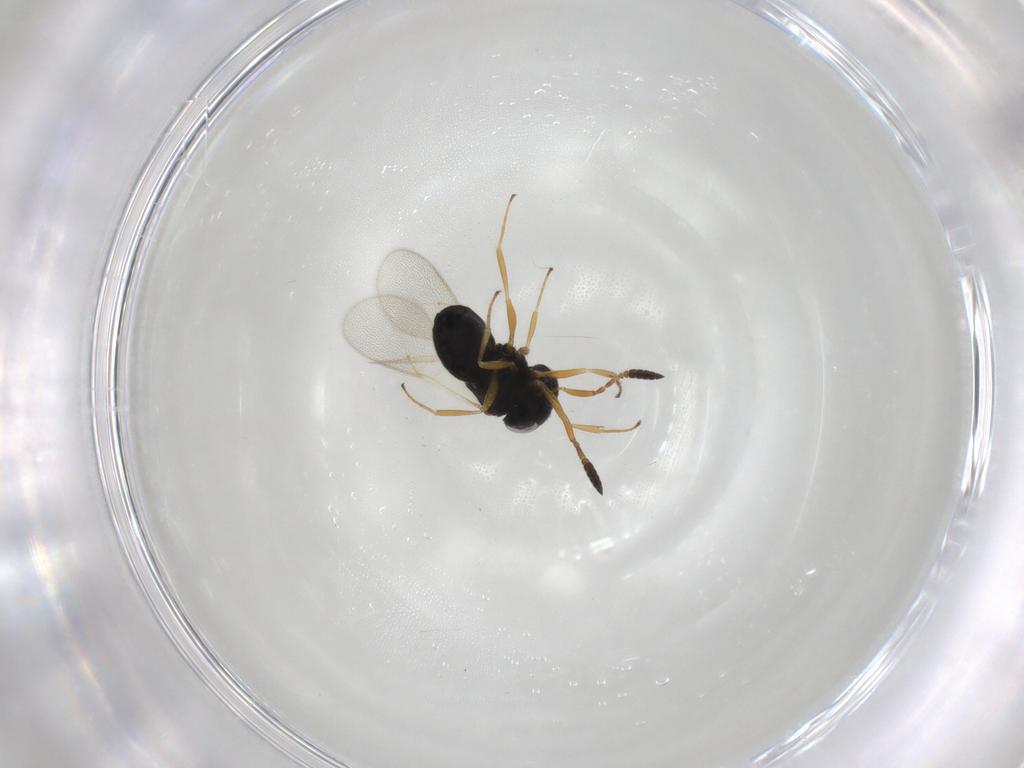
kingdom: Animalia
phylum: Arthropoda
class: Insecta
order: Hymenoptera
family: Scelionidae
